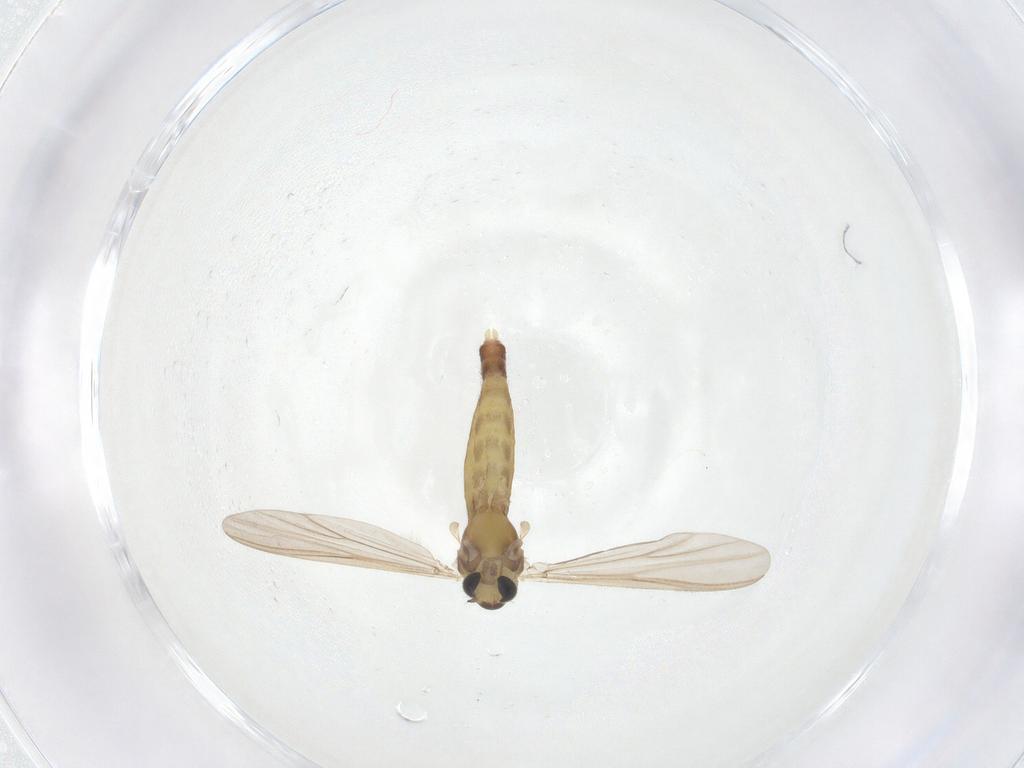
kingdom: Animalia
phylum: Arthropoda
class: Insecta
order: Diptera
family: Chironomidae
